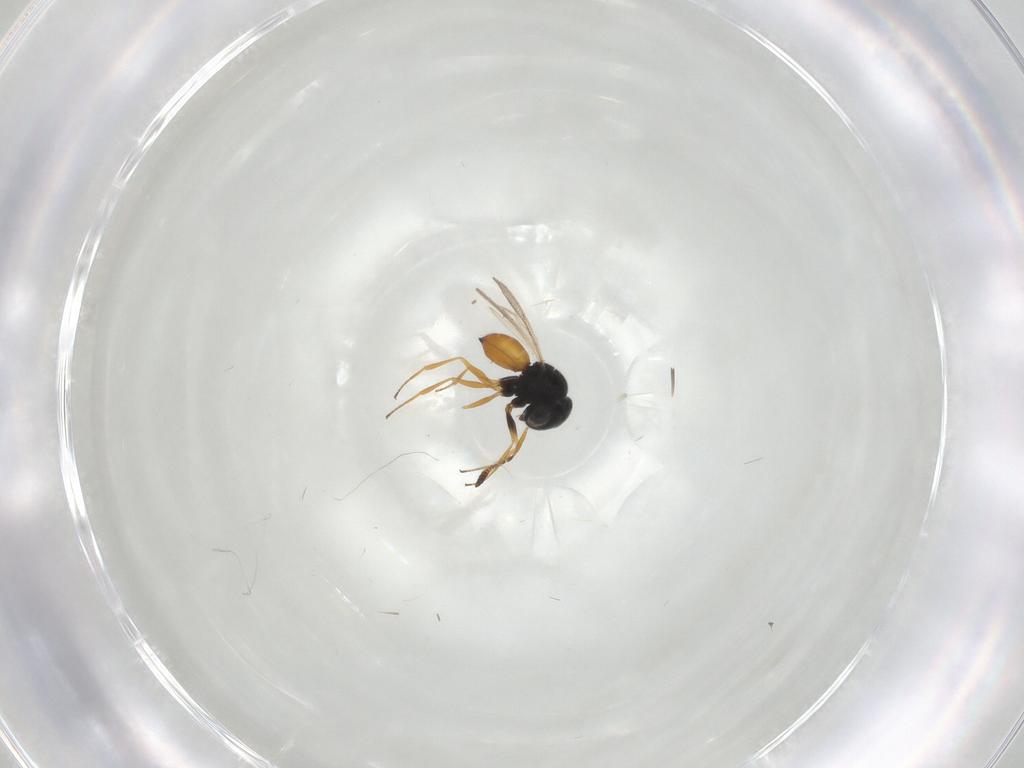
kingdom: Animalia
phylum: Arthropoda
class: Insecta
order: Hymenoptera
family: Scelionidae
